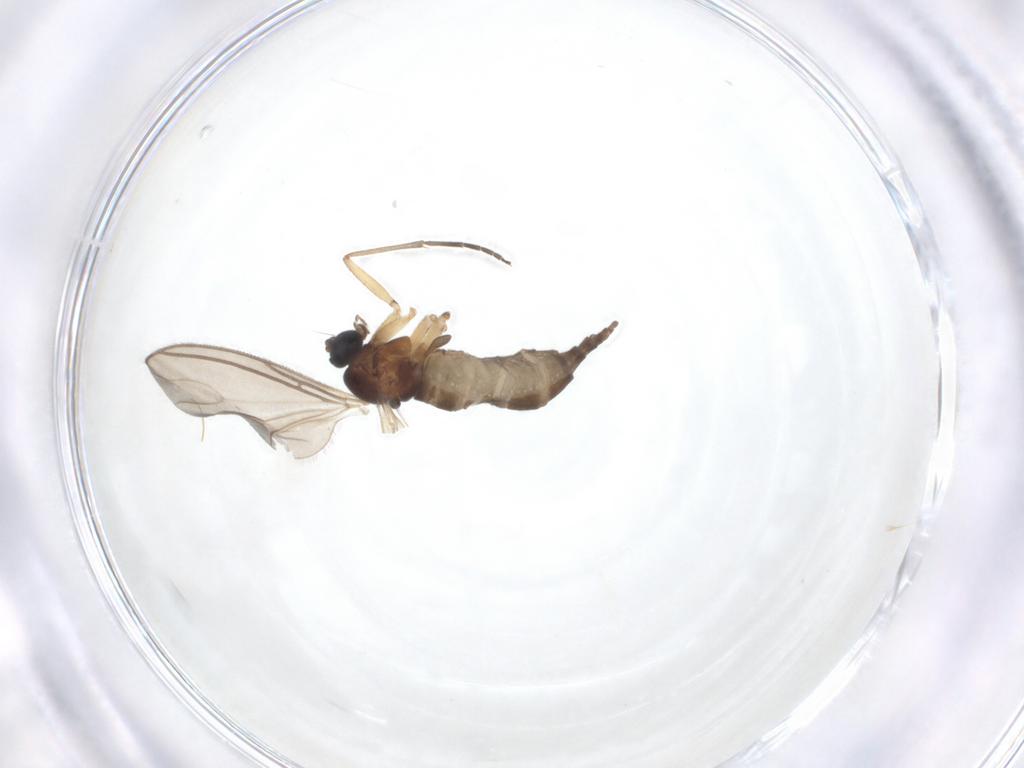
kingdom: Animalia
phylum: Arthropoda
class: Insecta
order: Diptera
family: Sciaridae
